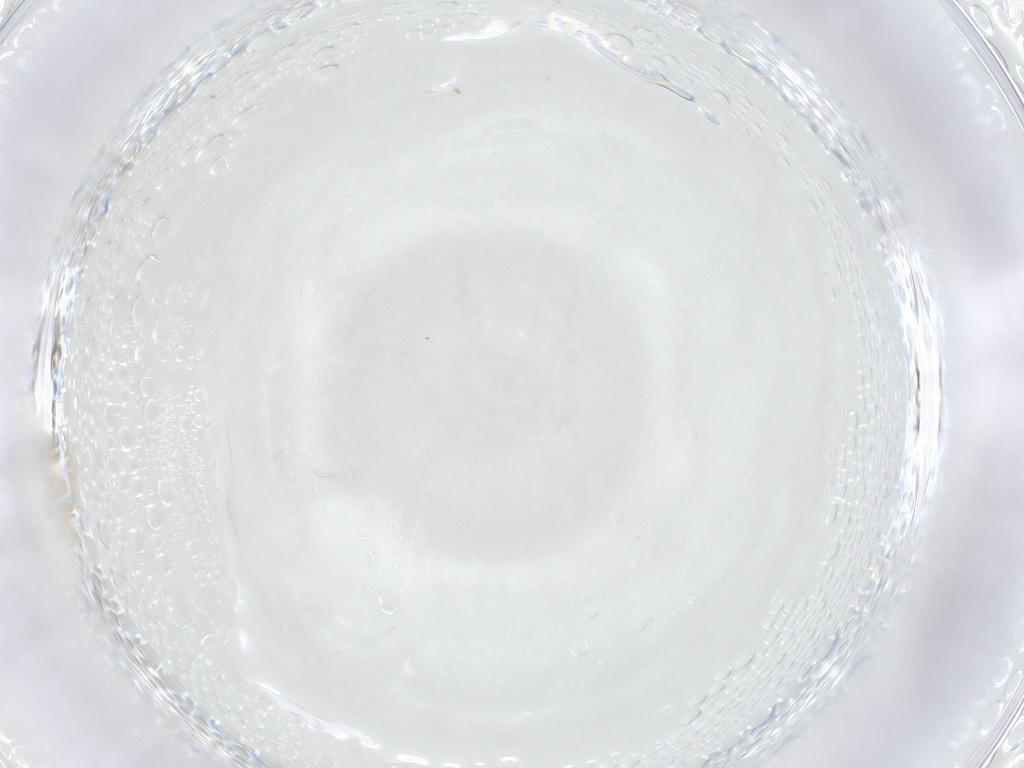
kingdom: Animalia
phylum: Arthropoda
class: Insecta
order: Diptera
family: Chironomidae
